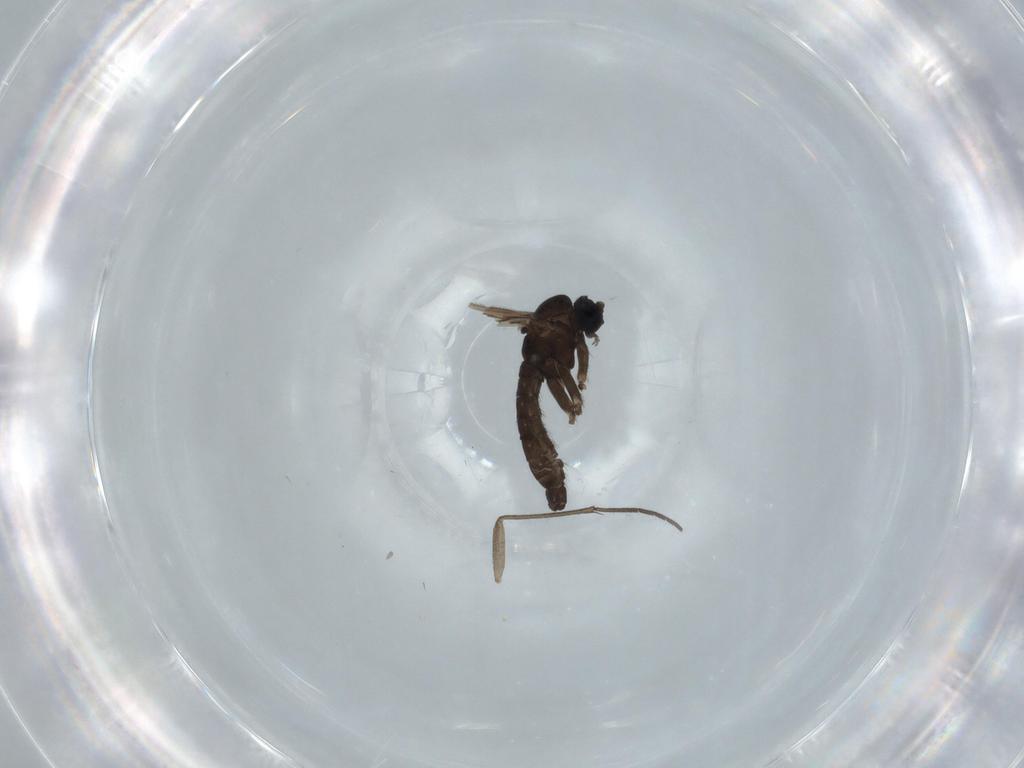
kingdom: Animalia
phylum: Arthropoda
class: Insecta
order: Diptera
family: Sciaridae
